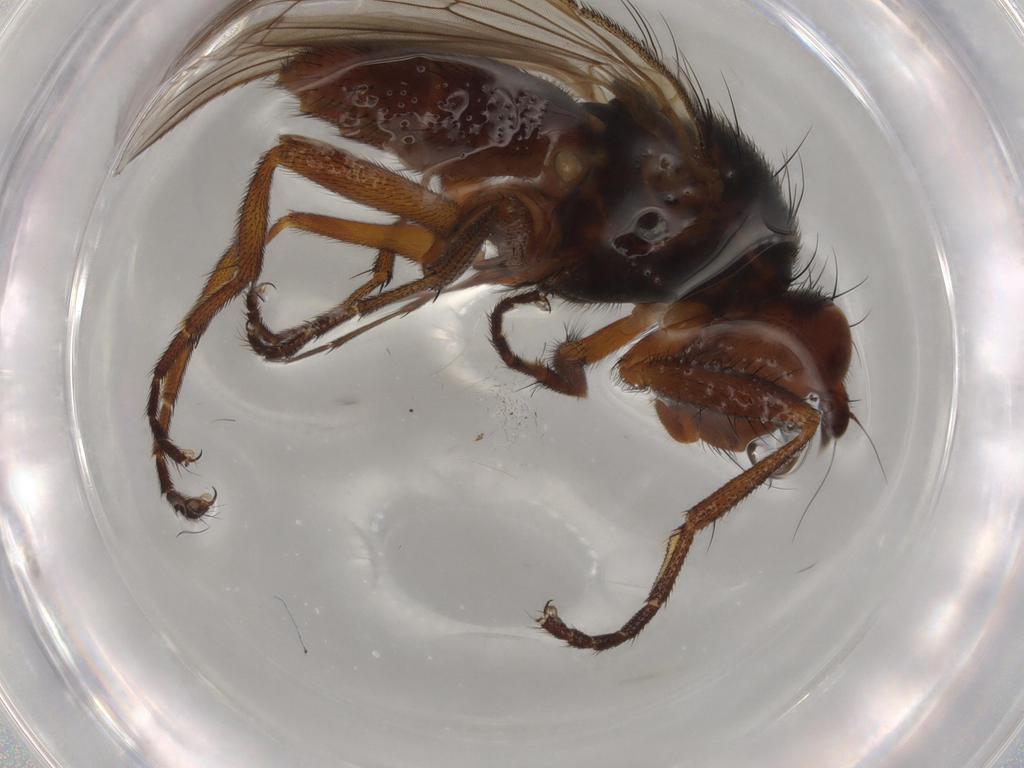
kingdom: Animalia
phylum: Arthropoda
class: Insecta
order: Diptera
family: Heleomyzidae
